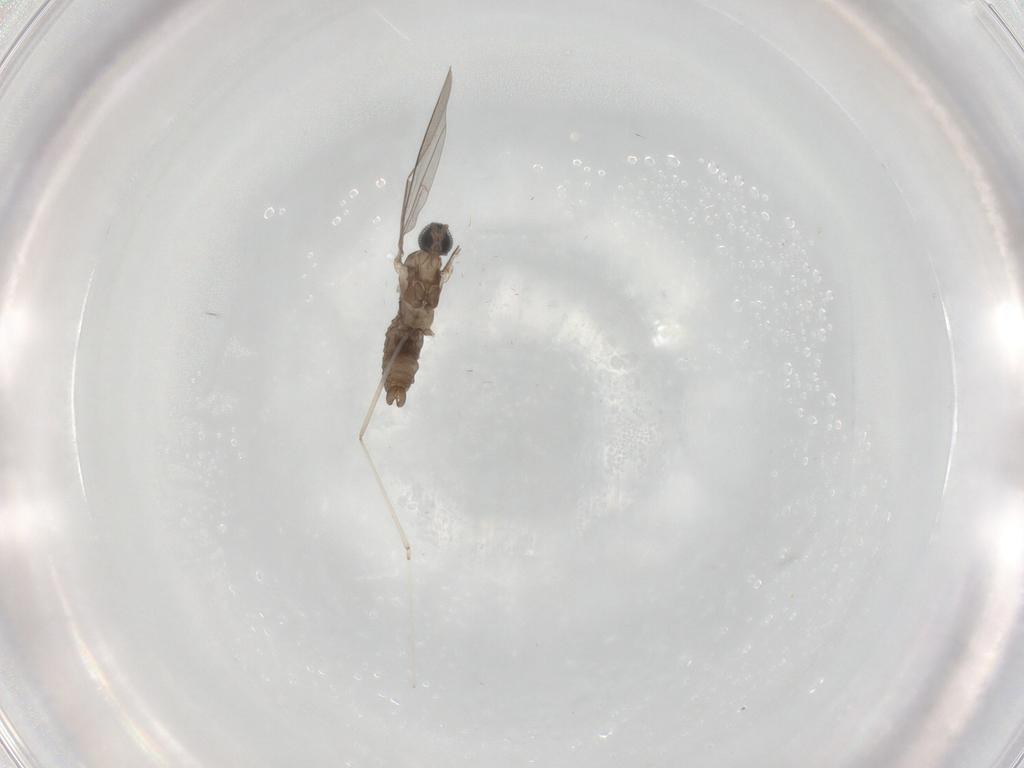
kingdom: Animalia
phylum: Arthropoda
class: Insecta
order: Diptera
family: Cecidomyiidae
